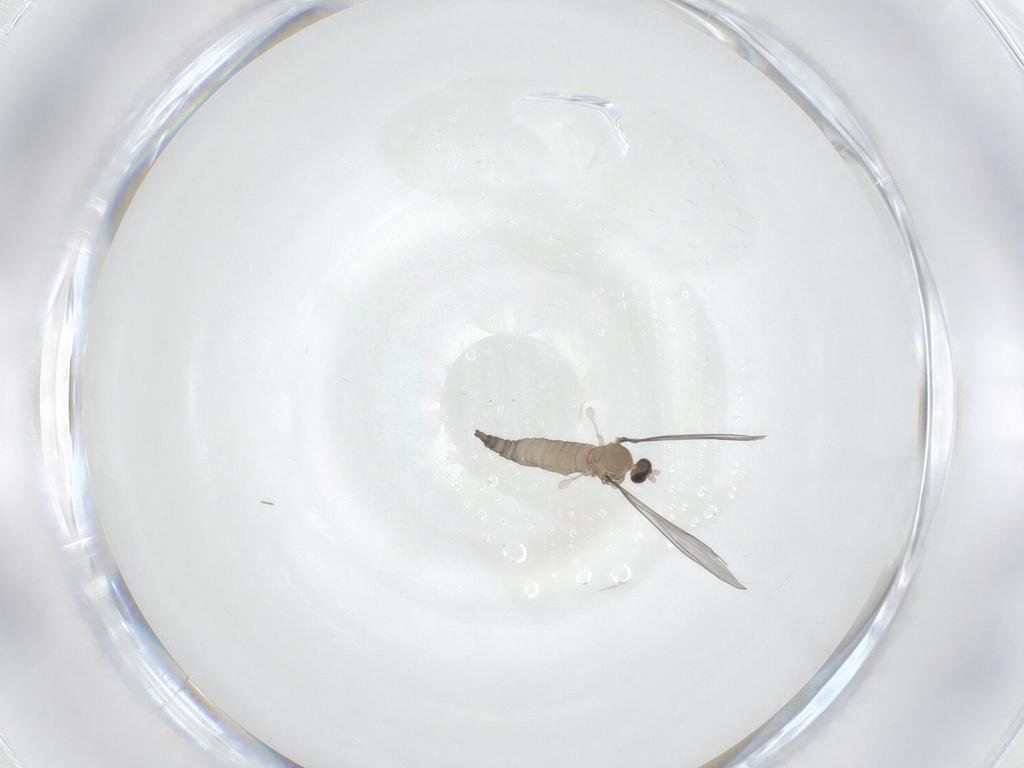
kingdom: Animalia
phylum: Arthropoda
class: Insecta
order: Diptera
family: Cecidomyiidae
